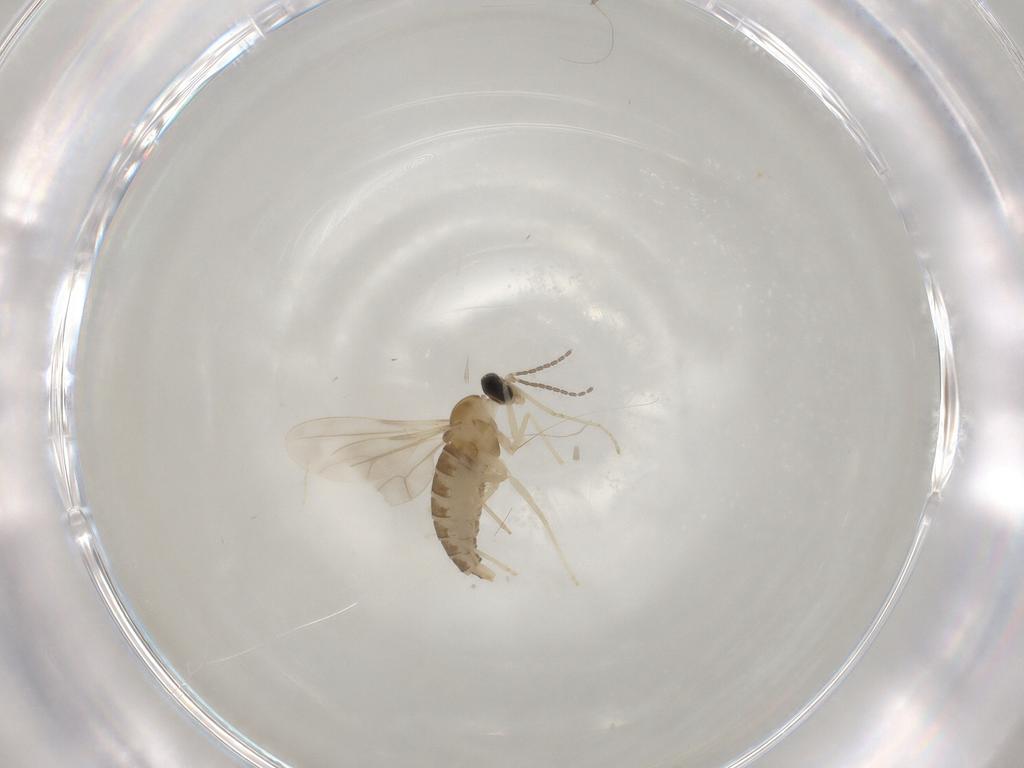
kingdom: Animalia
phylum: Arthropoda
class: Insecta
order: Diptera
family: Cecidomyiidae
